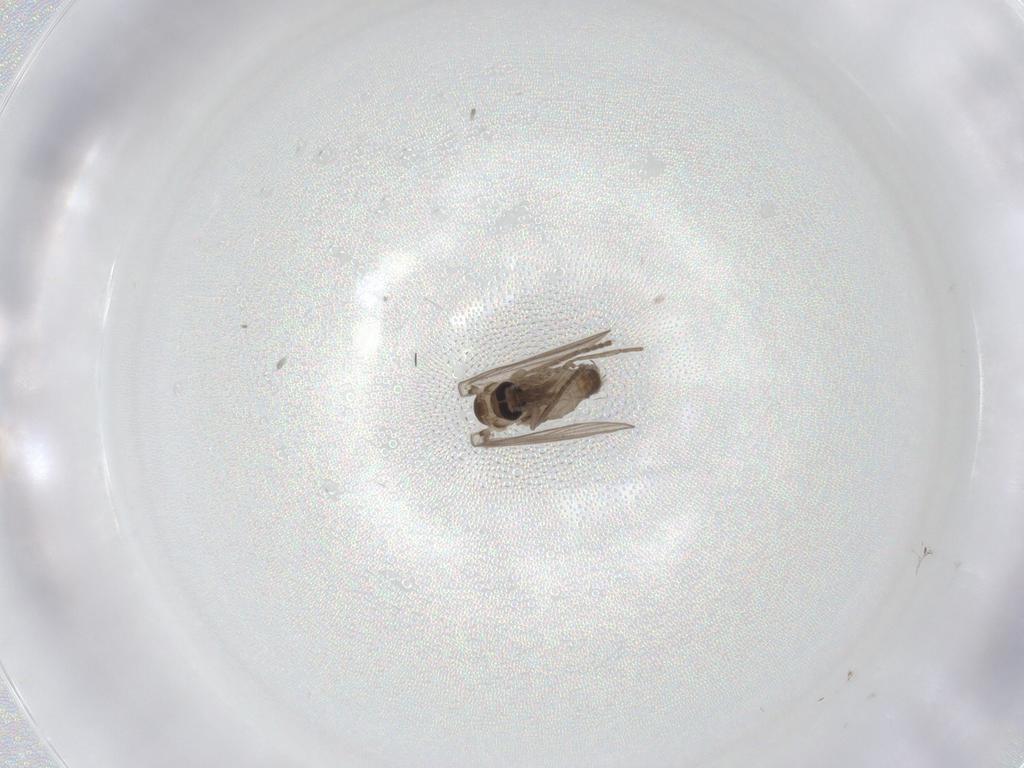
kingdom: Animalia
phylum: Arthropoda
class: Insecta
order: Diptera
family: Psychodidae
